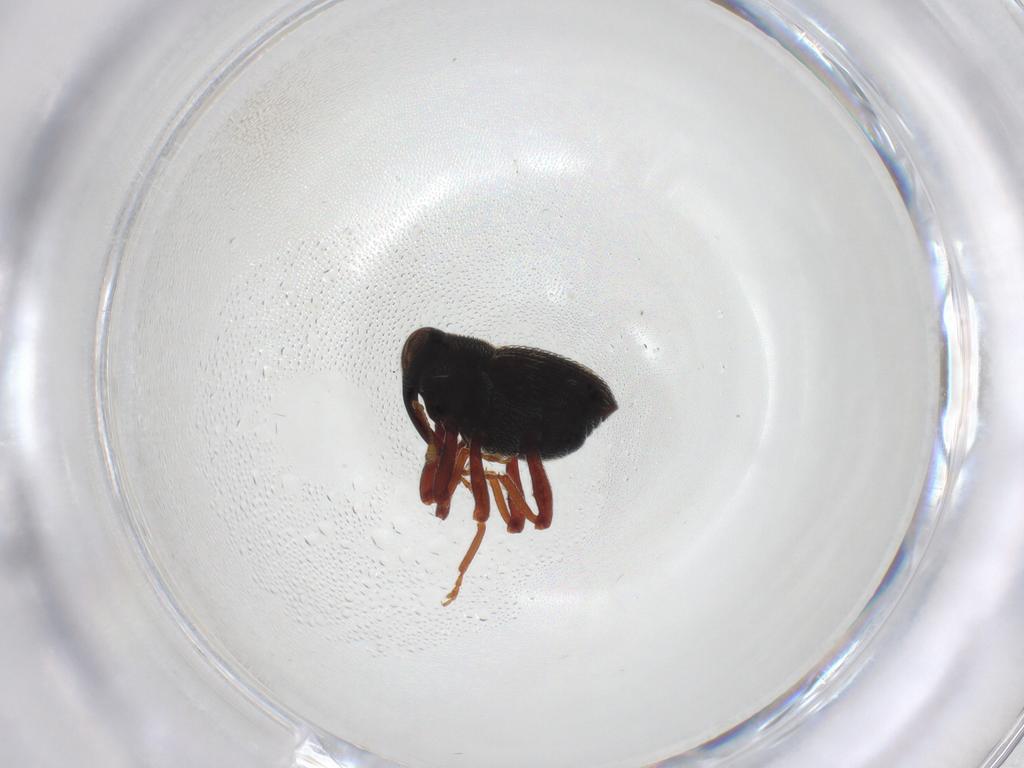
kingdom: Animalia
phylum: Arthropoda
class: Insecta
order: Coleoptera
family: Curculionidae
